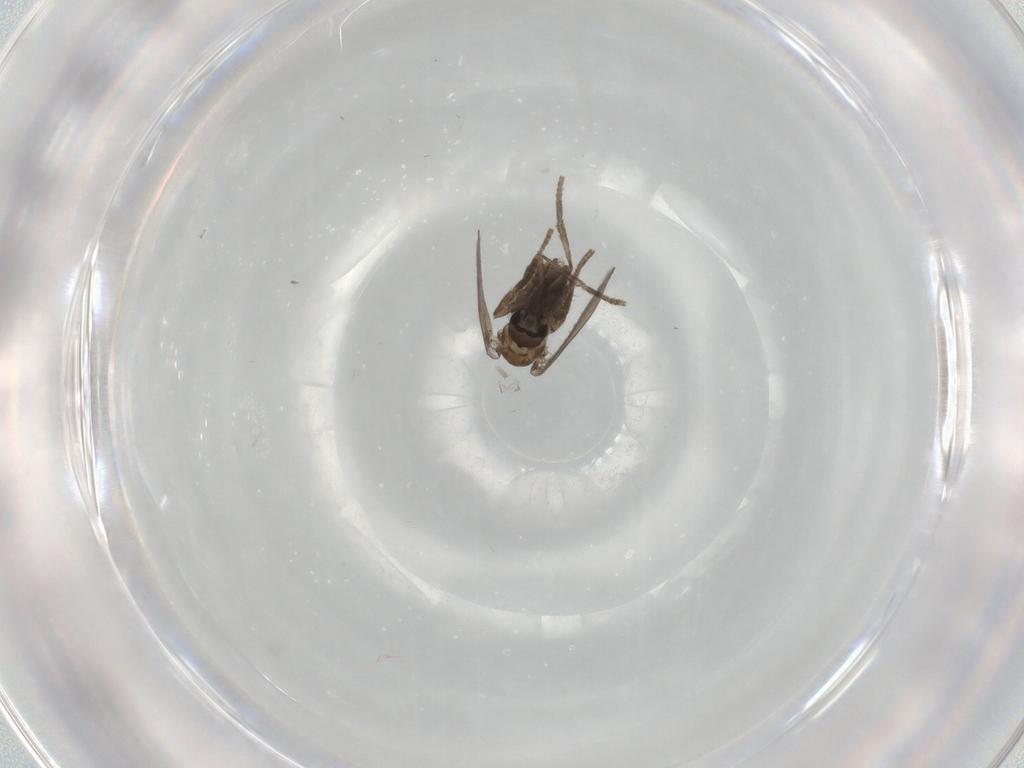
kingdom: Animalia
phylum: Arthropoda
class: Insecta
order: Diptera
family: Psychodidae
